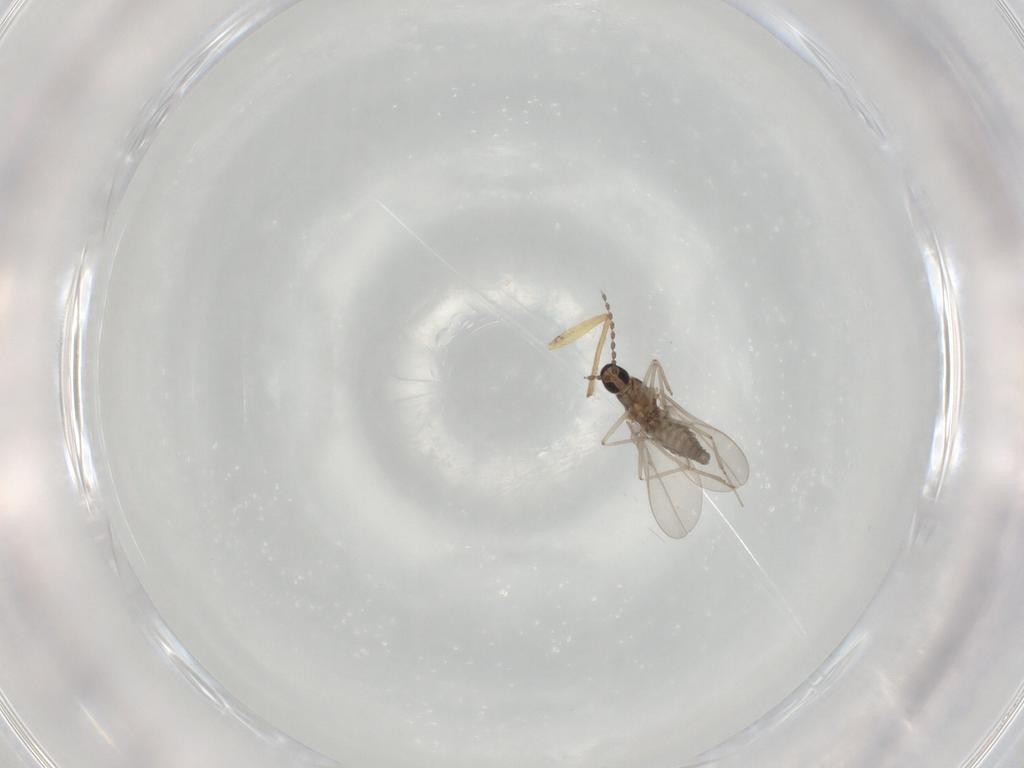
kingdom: Animalia
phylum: Arthropoda
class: Insecta
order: Diptera
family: Cecidomyiidae
